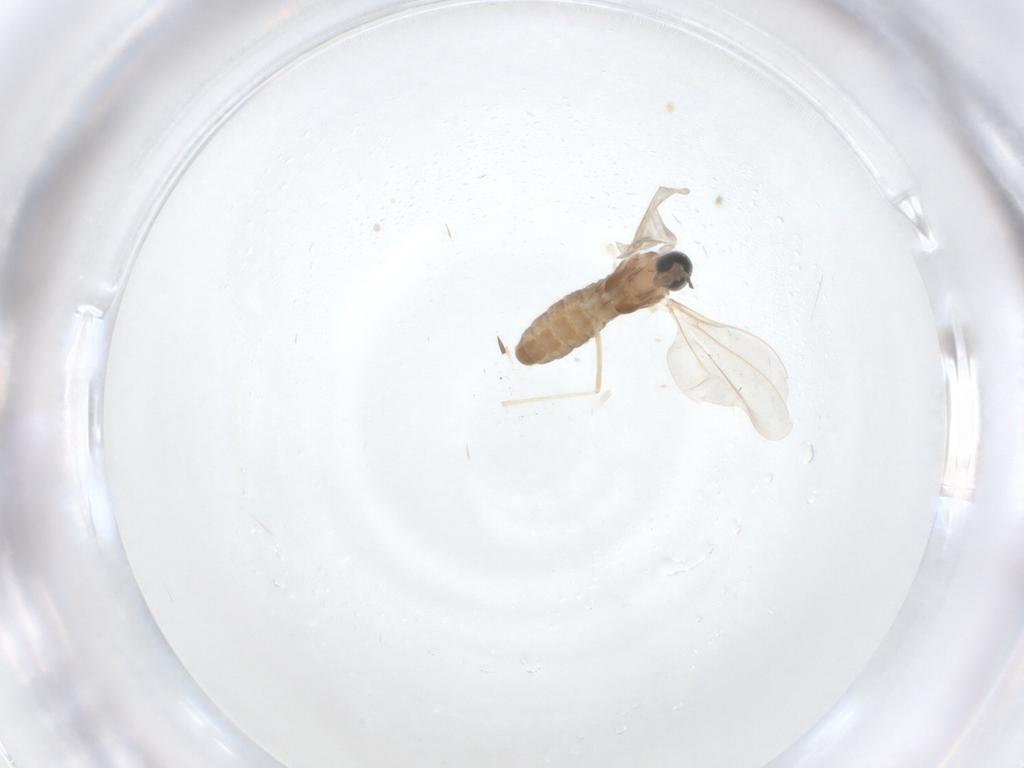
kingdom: Animalia
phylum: Arthropoda
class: Insecta
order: Diptera
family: Cecidomyiidae
